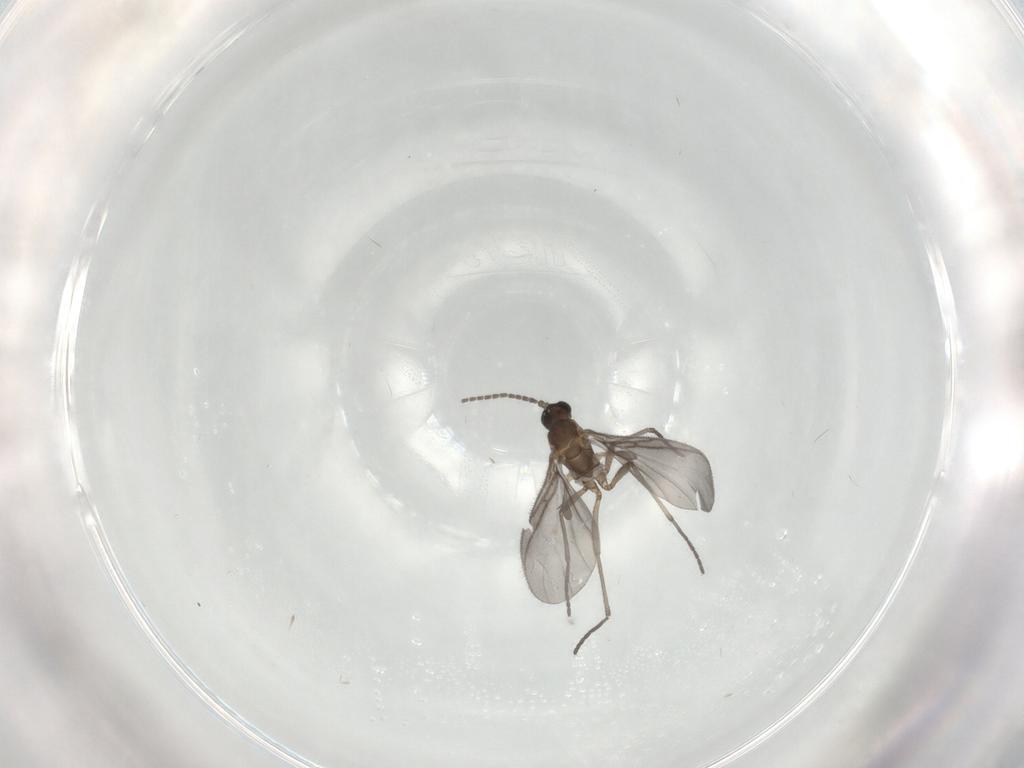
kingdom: Animalia
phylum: Arthropoda
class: Insecta
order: Diptera
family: Sciaridae
